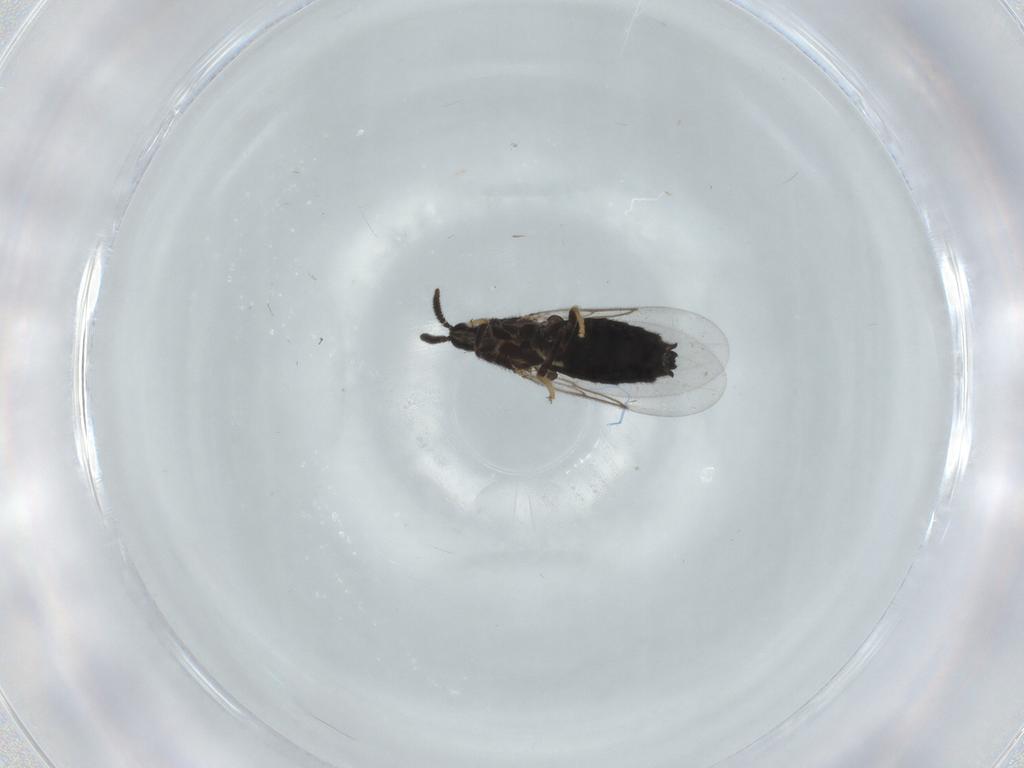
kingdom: Animalia
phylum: Arthropoda
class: Insecta
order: Diptera
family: Scatopsidae
